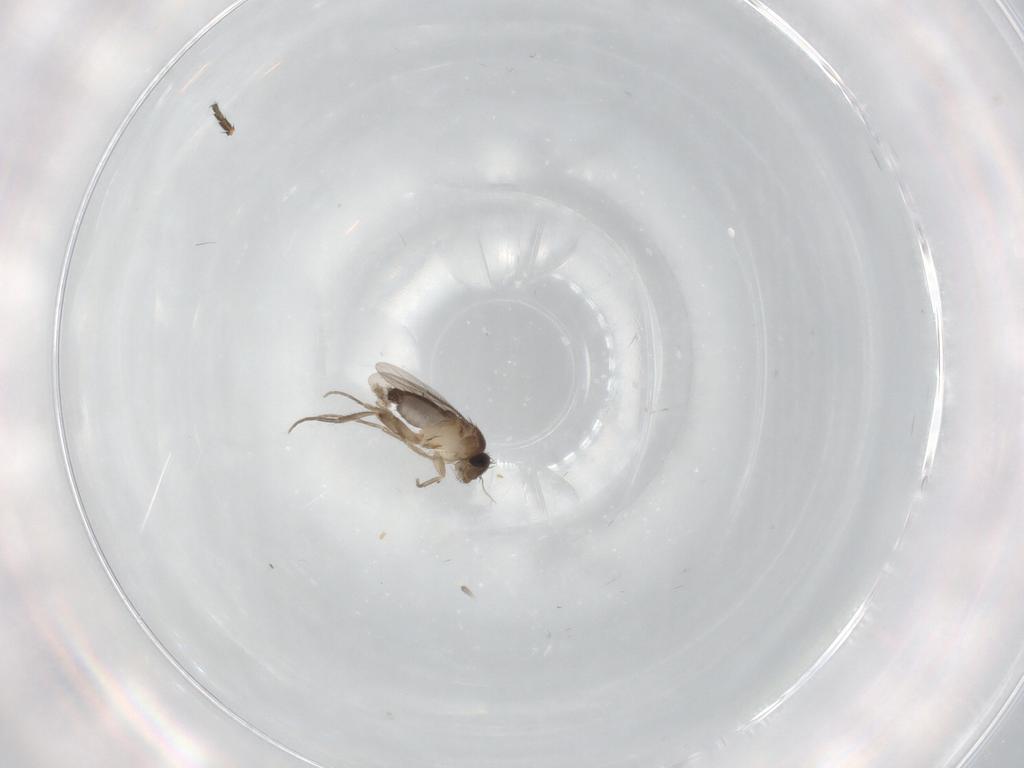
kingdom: Animalia
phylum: Arthropoda
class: Insecta
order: Diptera
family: Phoridae
